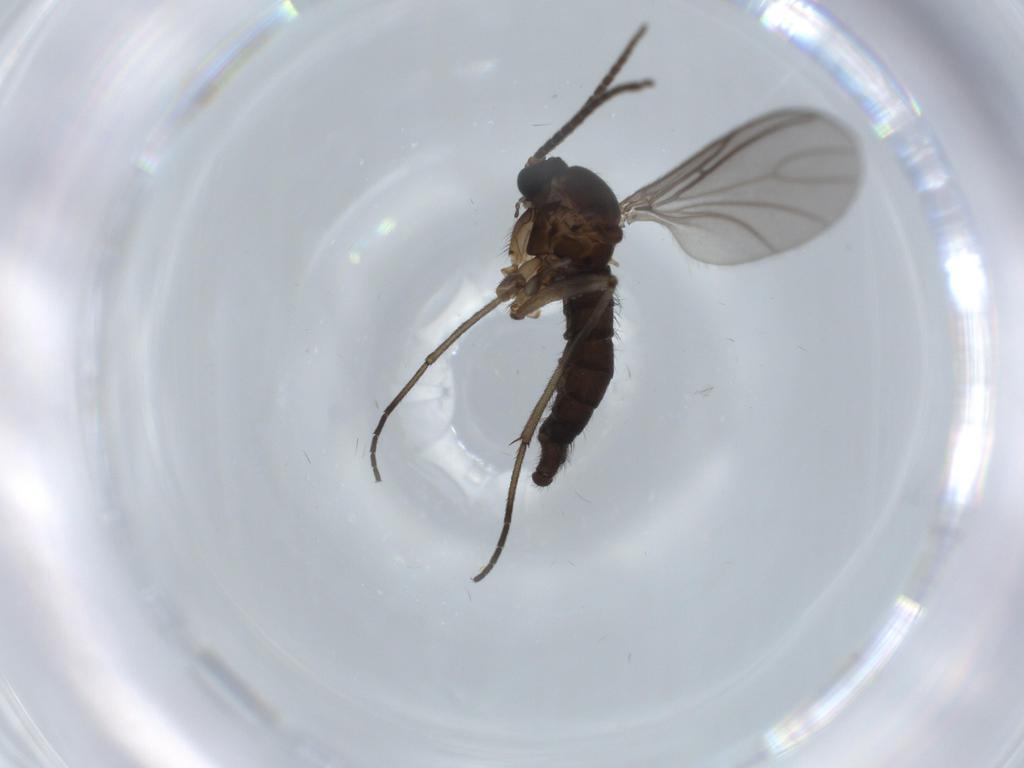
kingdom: Animalia
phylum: Arthropoda
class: Insecta
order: Diptera
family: Sciaridae
